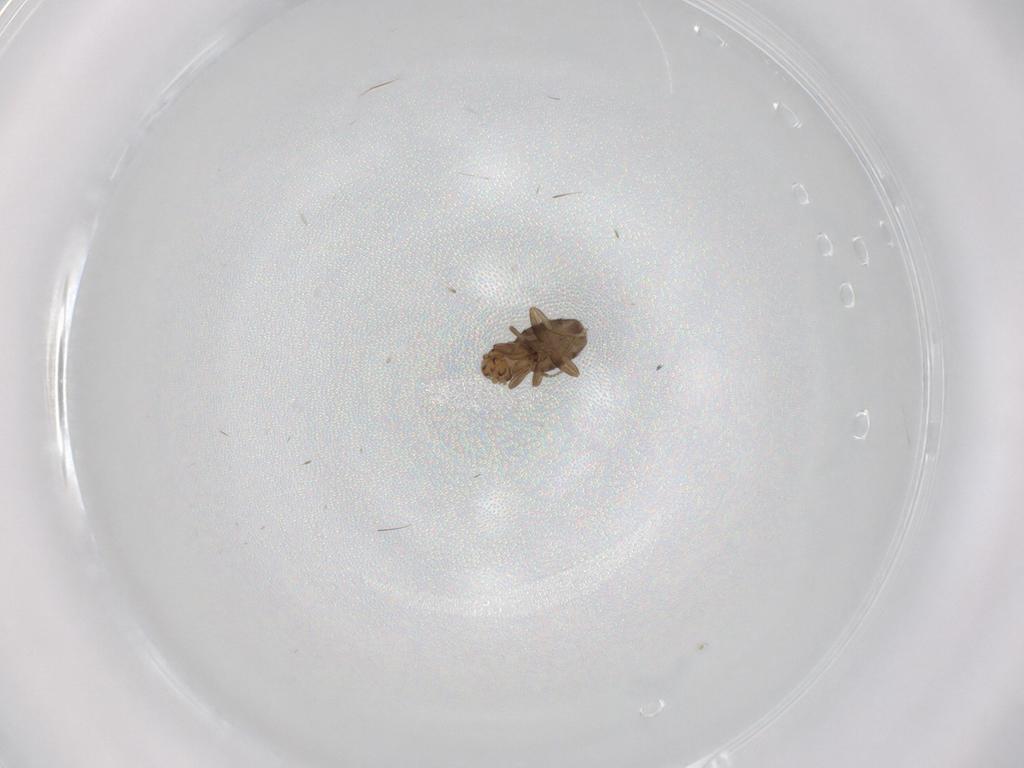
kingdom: Animalia
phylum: Arthropoda
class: Insecta
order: Diptera
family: Phoridae
